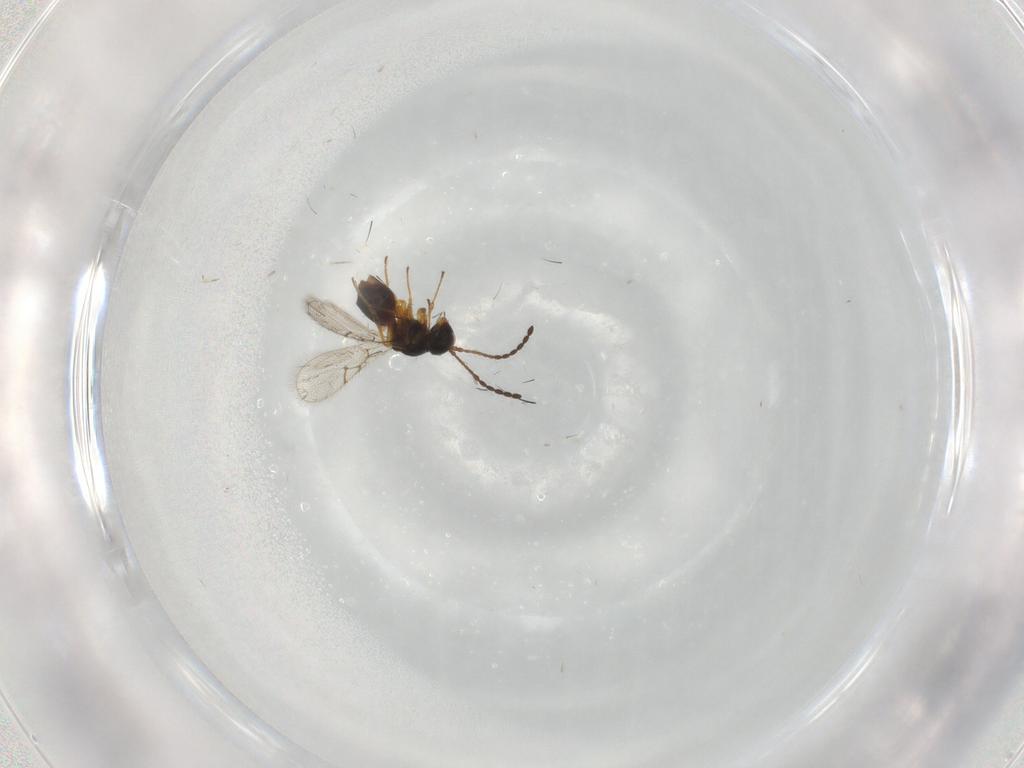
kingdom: Animalia
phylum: Arthropoda
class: Insecta
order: Hymenoptera
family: Figitidae
